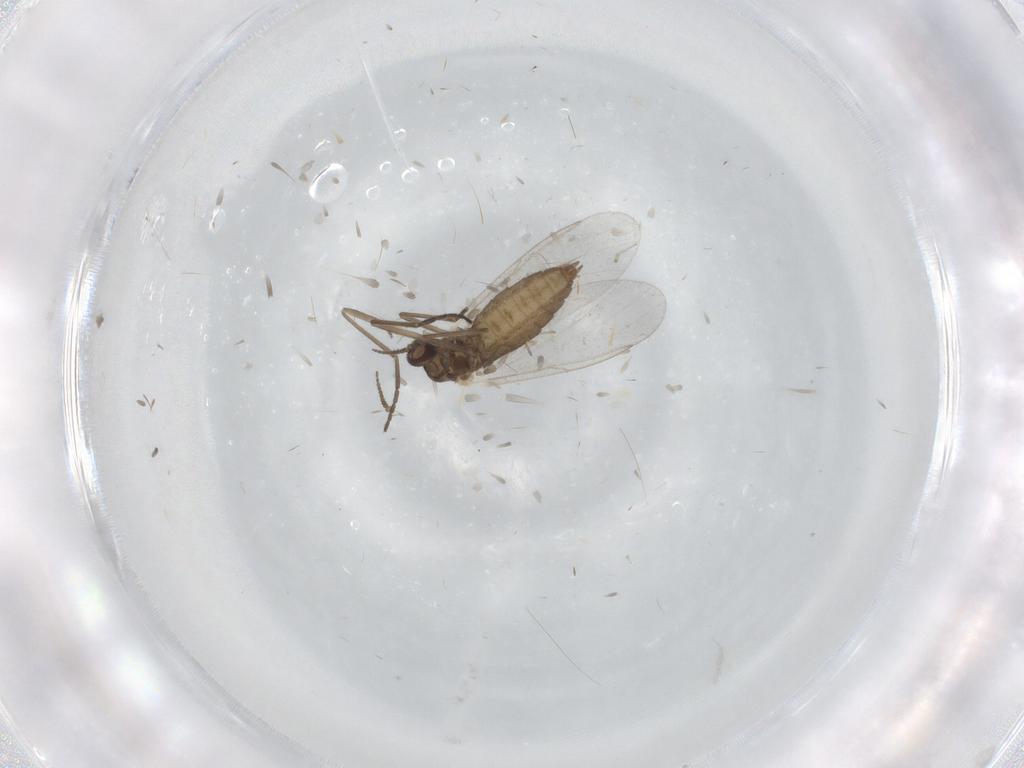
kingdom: Animalia
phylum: Arthropoda
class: Insecta
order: Diptera
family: Cecidomyiidae
